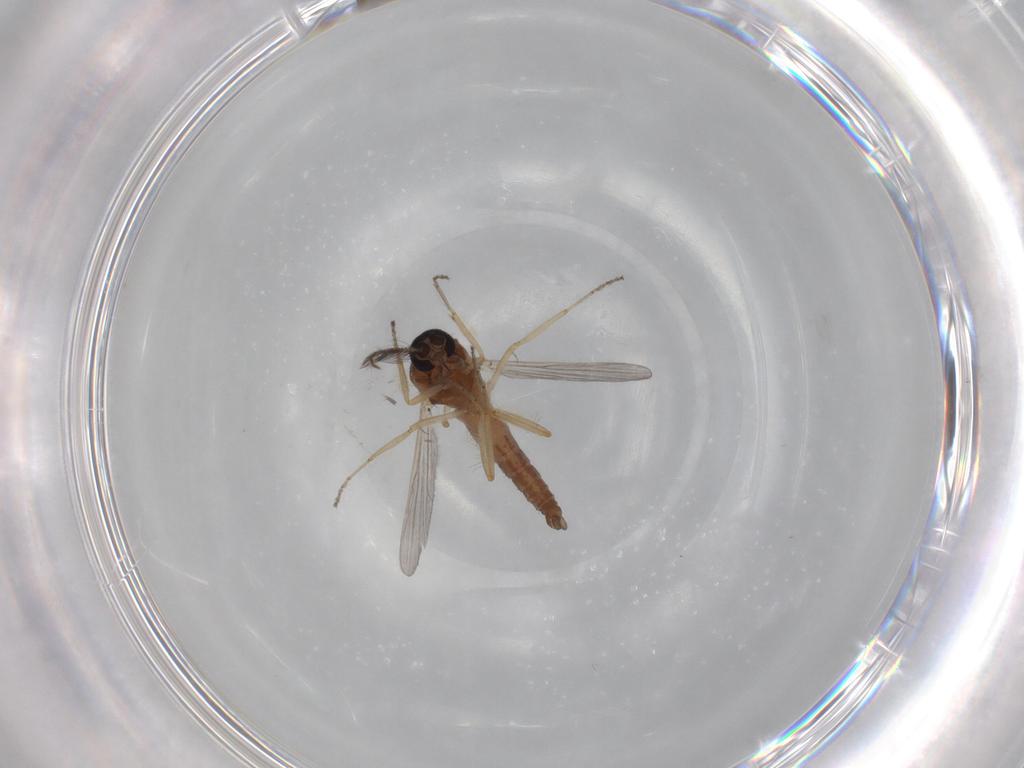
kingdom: Animalia
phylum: Arthropoda
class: Insecta
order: Diptera
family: Ceratopogonidae
